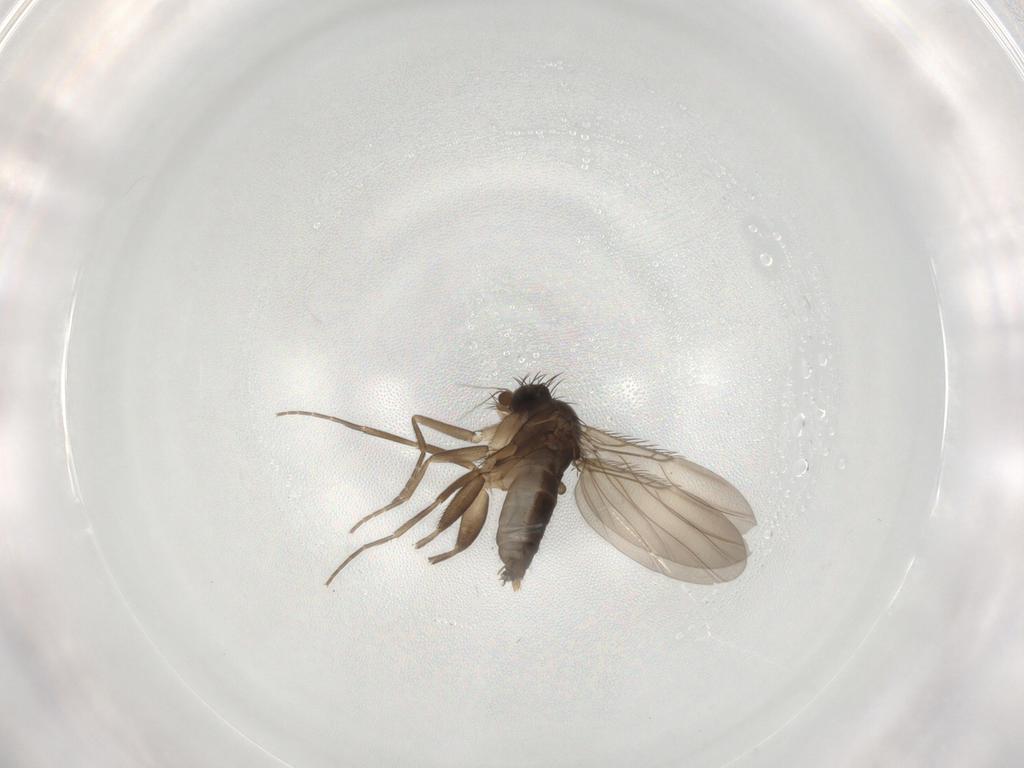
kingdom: Animalia
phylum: Arthropoda
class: Insecta
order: Diptera
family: Phoridae
